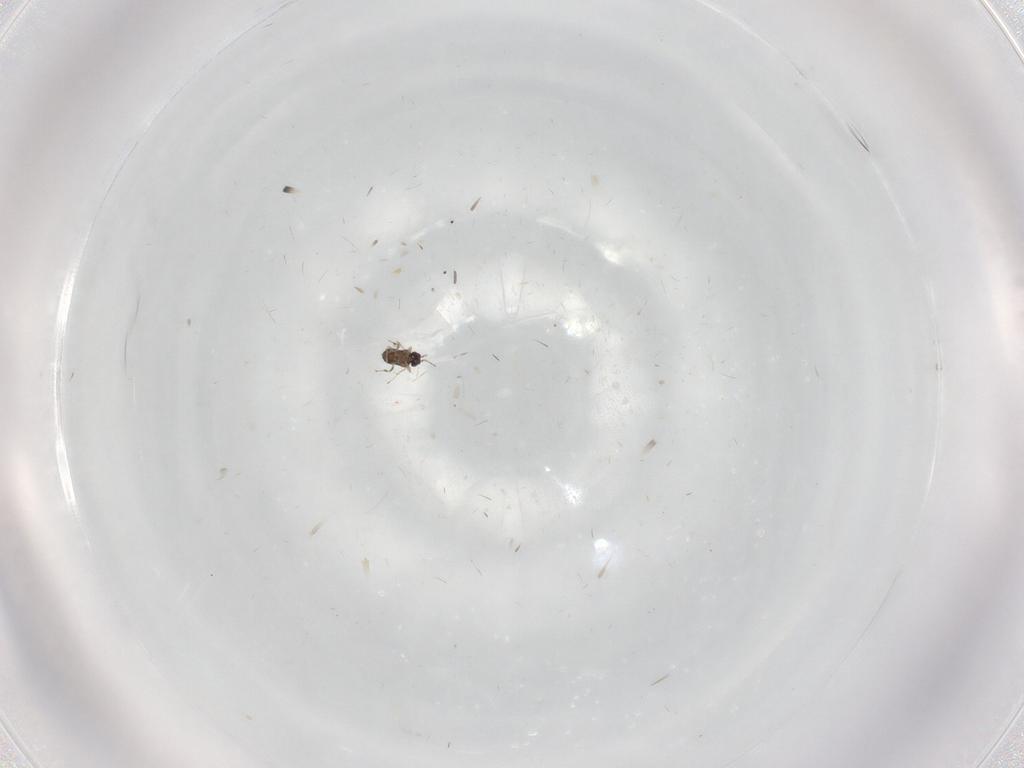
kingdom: Animalia
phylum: Arthropoda
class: Insecta
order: Hymenoptera
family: Mymaridae
